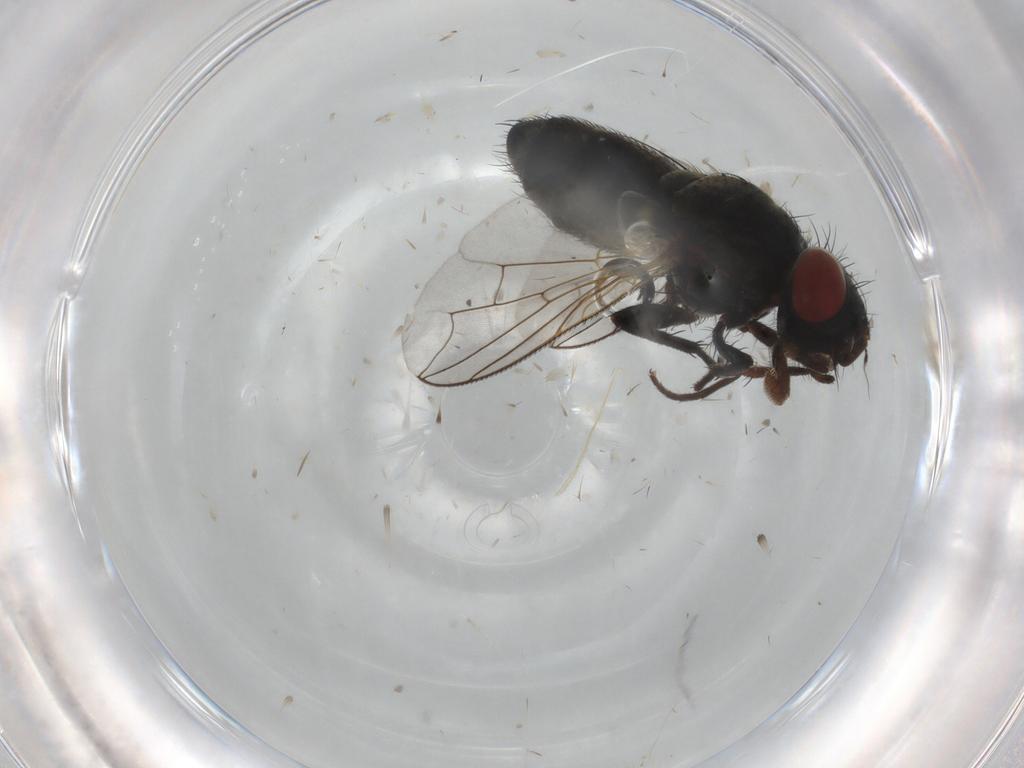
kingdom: Animalia
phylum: Arthropoda
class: Insecta
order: Diptera
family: Sarcophagidae
